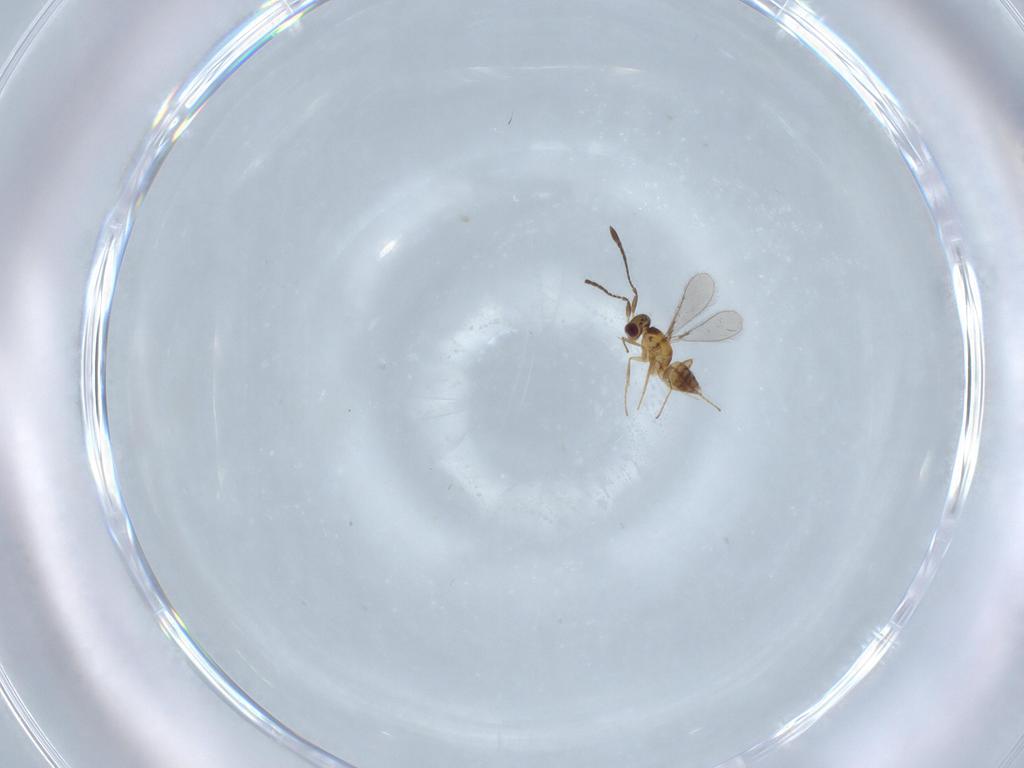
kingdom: Animalia
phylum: Arthropoda
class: Insecta
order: Hymenoptera
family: Mymaridae
